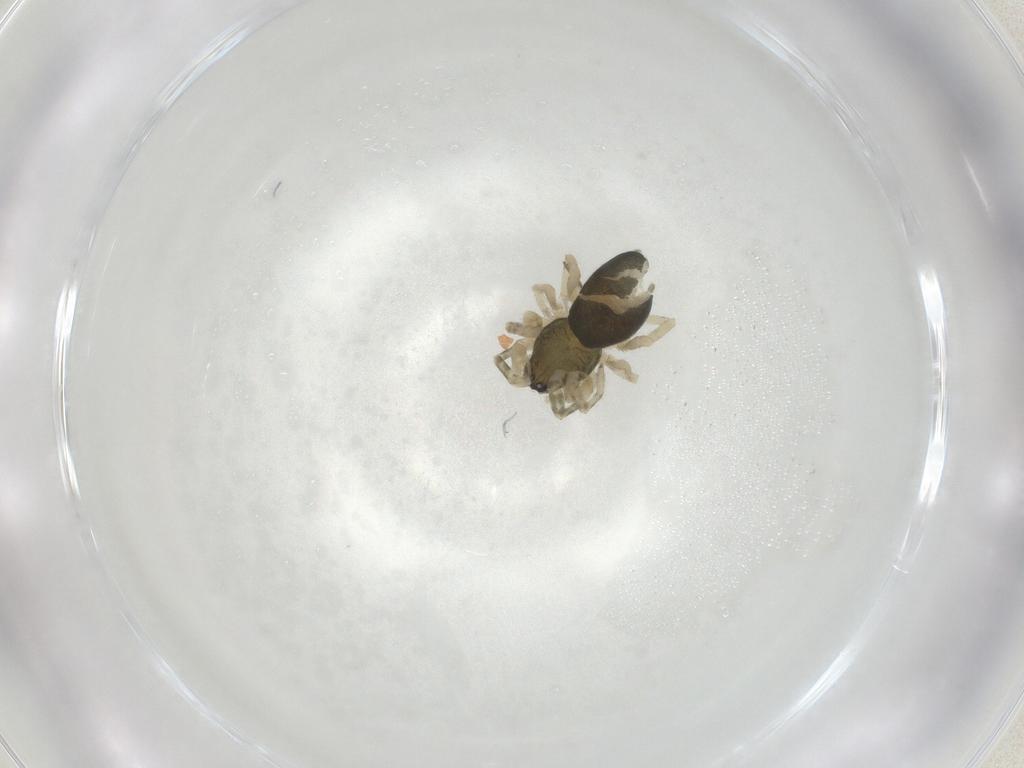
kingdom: Animalia
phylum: Arthropoda
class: Arachnida
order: Araneae
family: Trachelidae
